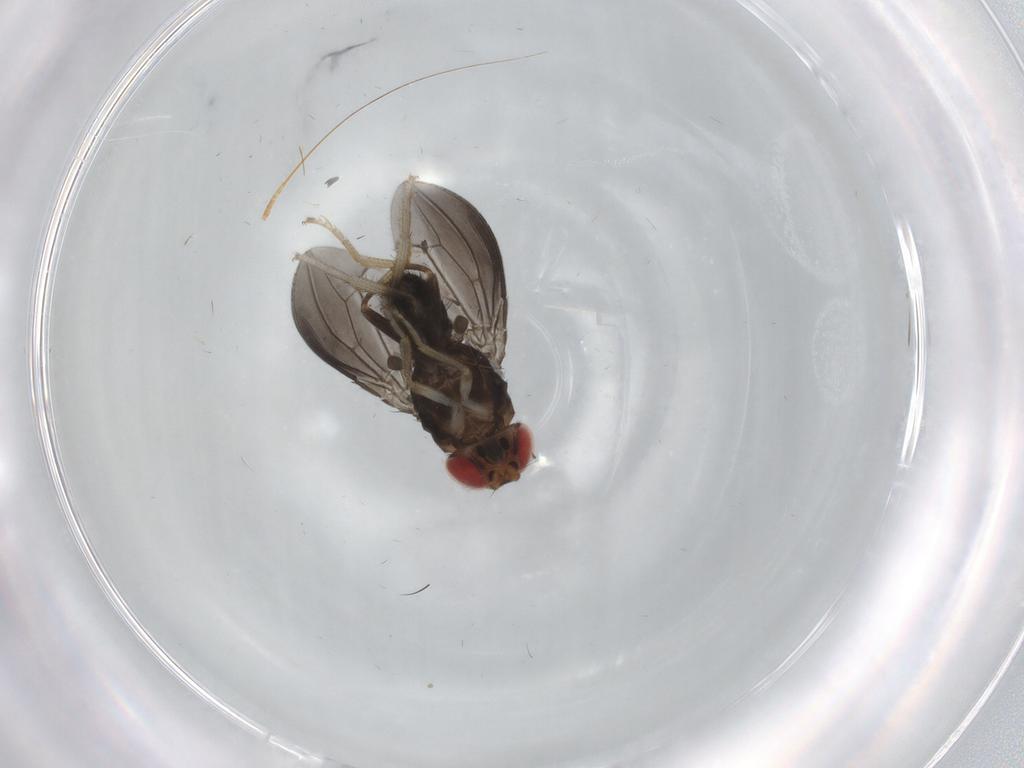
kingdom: Animalia
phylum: Arthropoda
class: Insecta
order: Diptera
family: Drosophilidae
